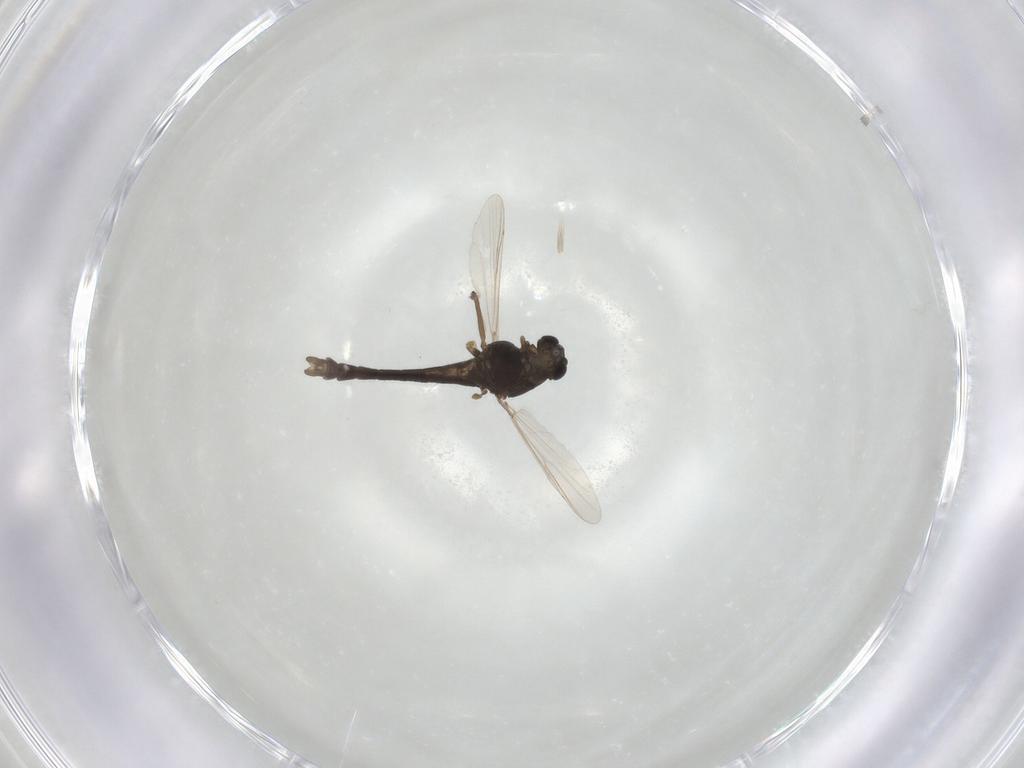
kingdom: Animalia
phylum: Arthropoda
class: Insecta
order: Diptera
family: Chironomidae
